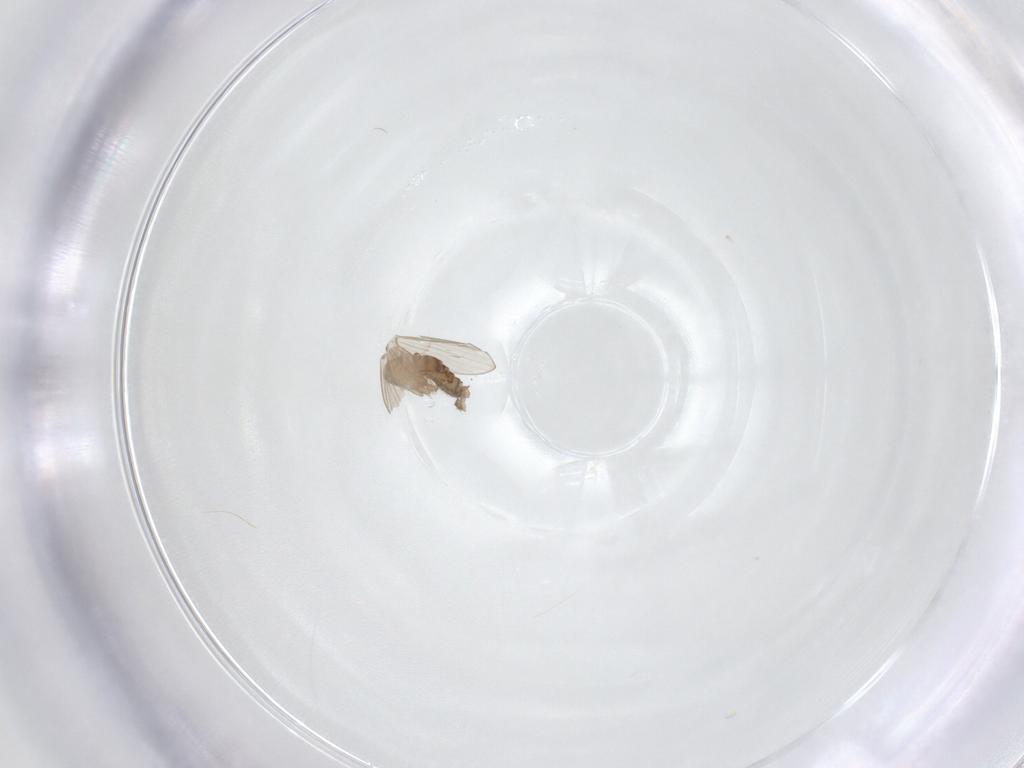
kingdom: Animalia
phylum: Arthropoda
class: Insecta
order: Diptera
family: Psychodidae
